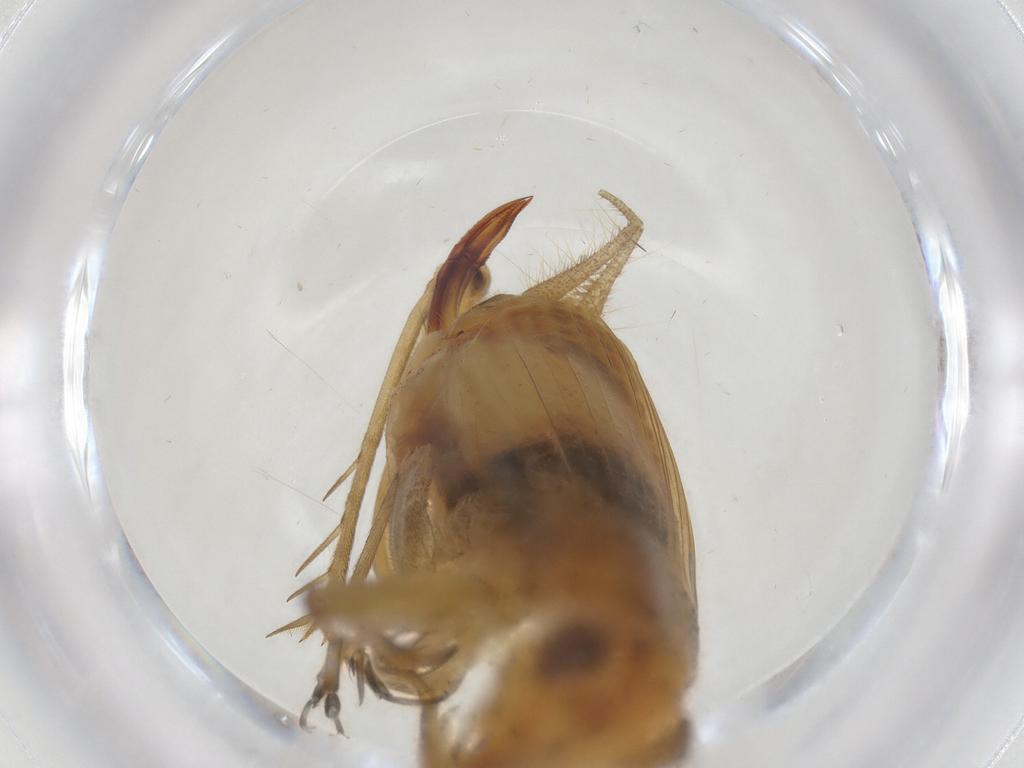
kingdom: Animalia
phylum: Arthropoda
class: Insecta
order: Orthoptera
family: Trigonidiidae
